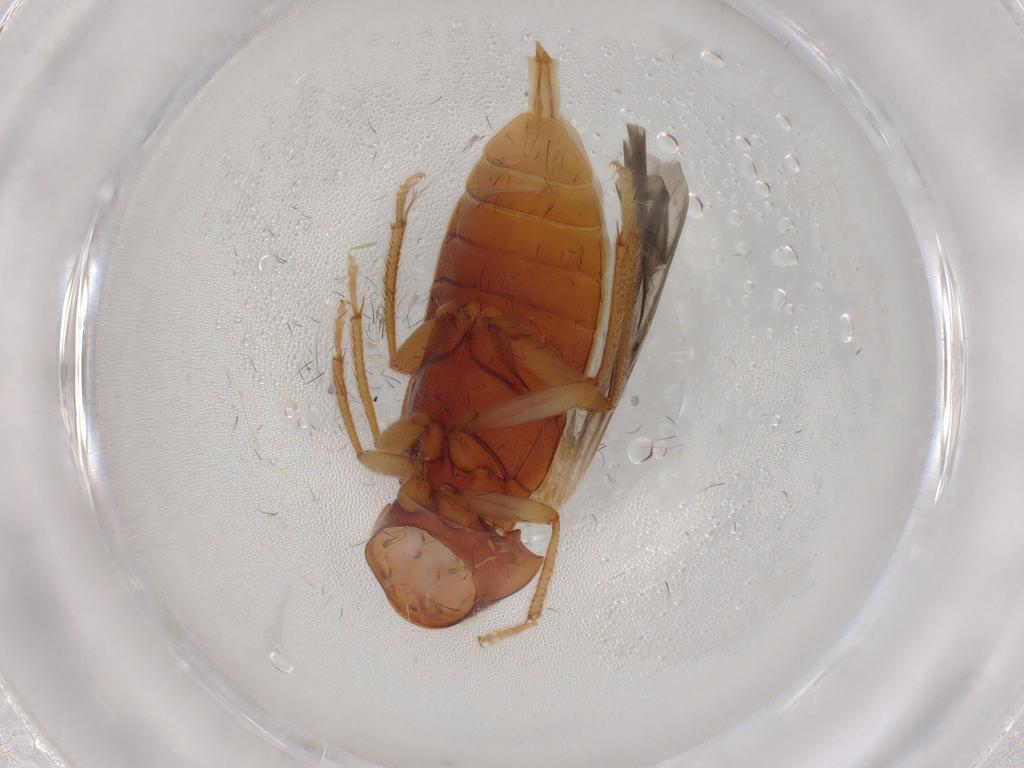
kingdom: Animalia
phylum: Arthropoda
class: Insecta
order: Coleoptera
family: Ptilodactylidae
